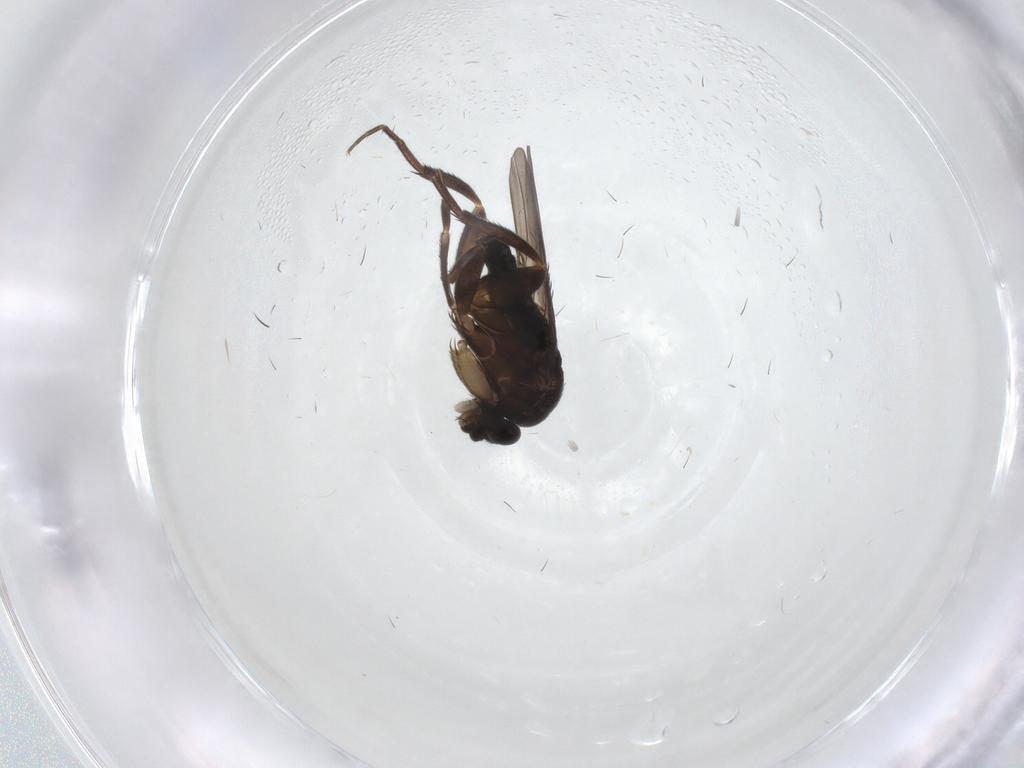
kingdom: Animalia
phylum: Arthropoda
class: Insecta
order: Diptera
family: Phoridae
